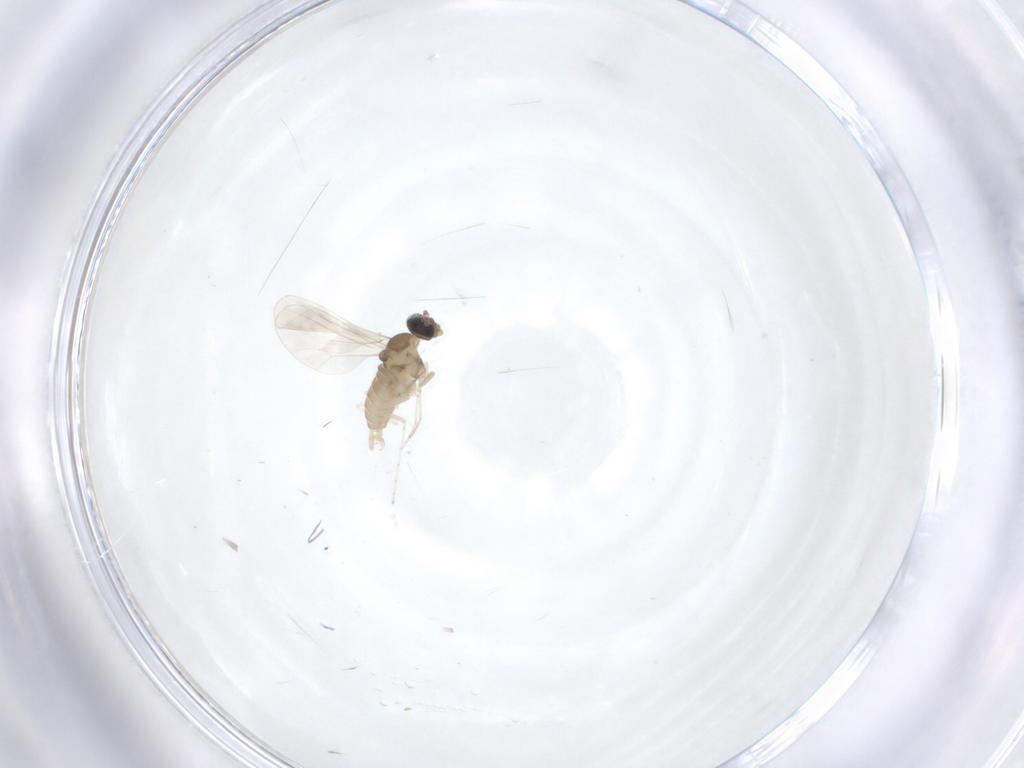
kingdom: Animalia
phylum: Arthropoda
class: Insecta
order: Diptera
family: Cecidomyiidae
